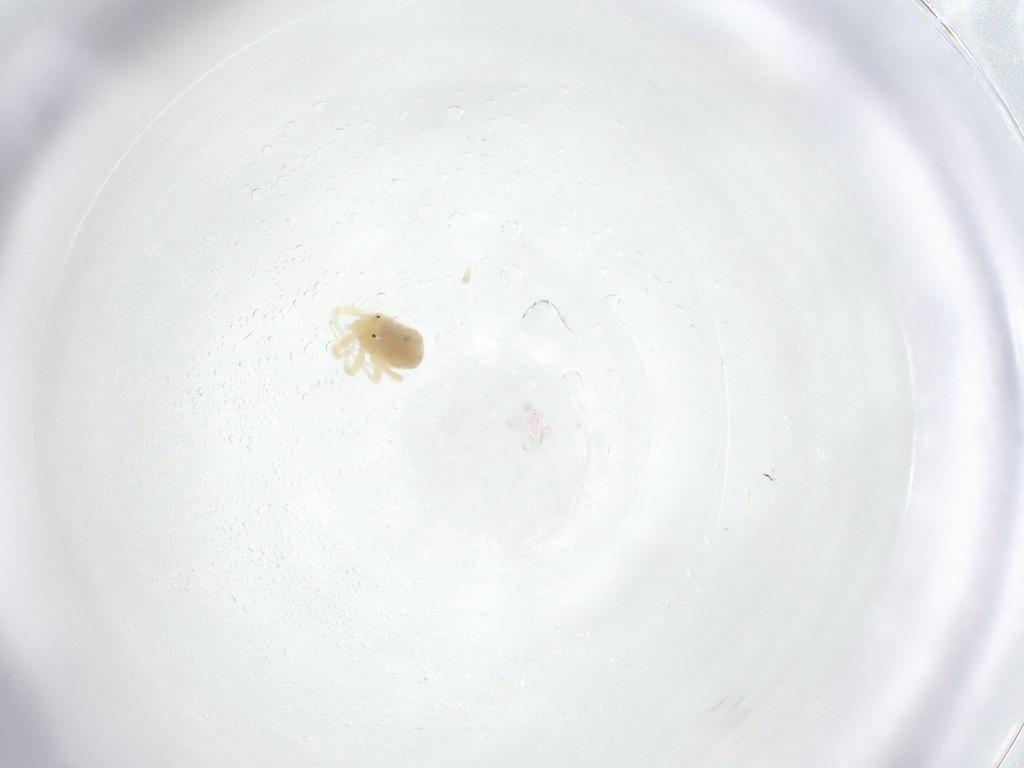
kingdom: Animalia
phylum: Arthropoda
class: Arachnida
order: Trombidiformes
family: Anystidae
